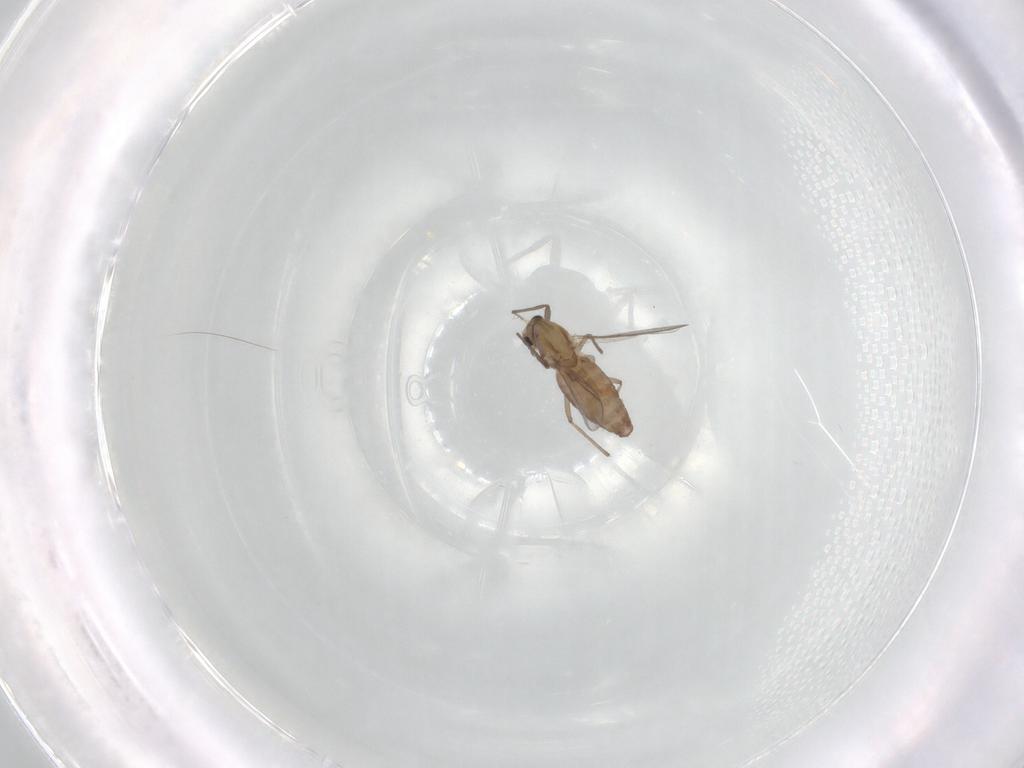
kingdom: Animalia
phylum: Arthropoda
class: Insecta
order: Diptera
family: Chironomidae
